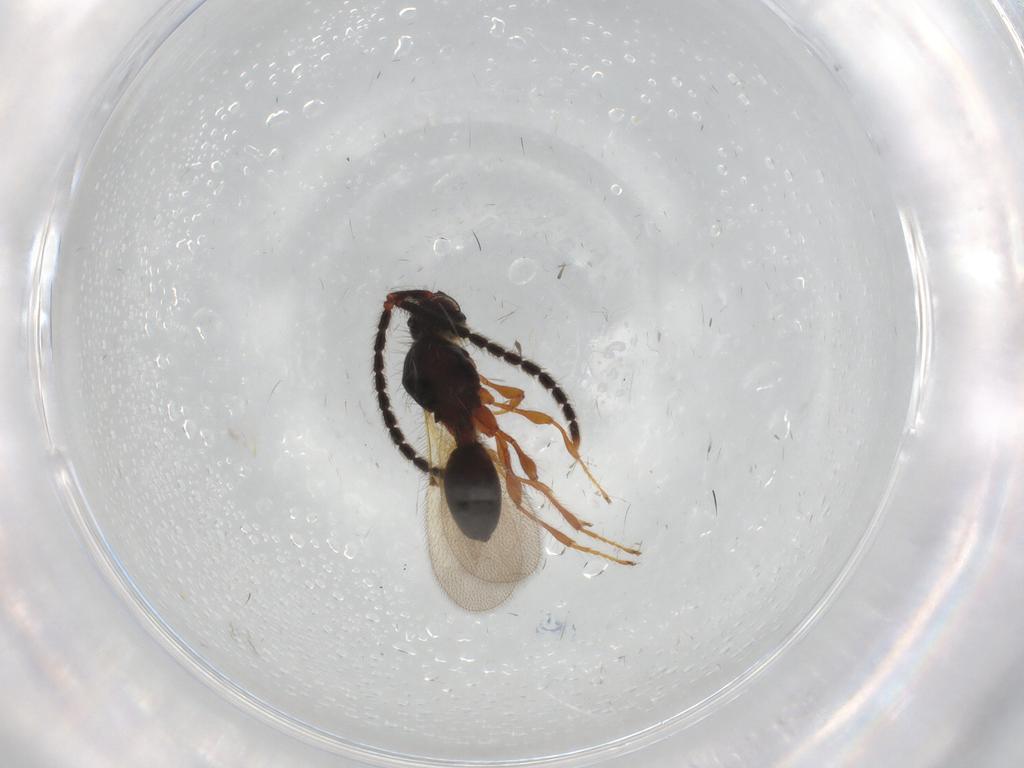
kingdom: Animalia
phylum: Arthropoda
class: Insecta
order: Hymenoptera
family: Diapriidae
